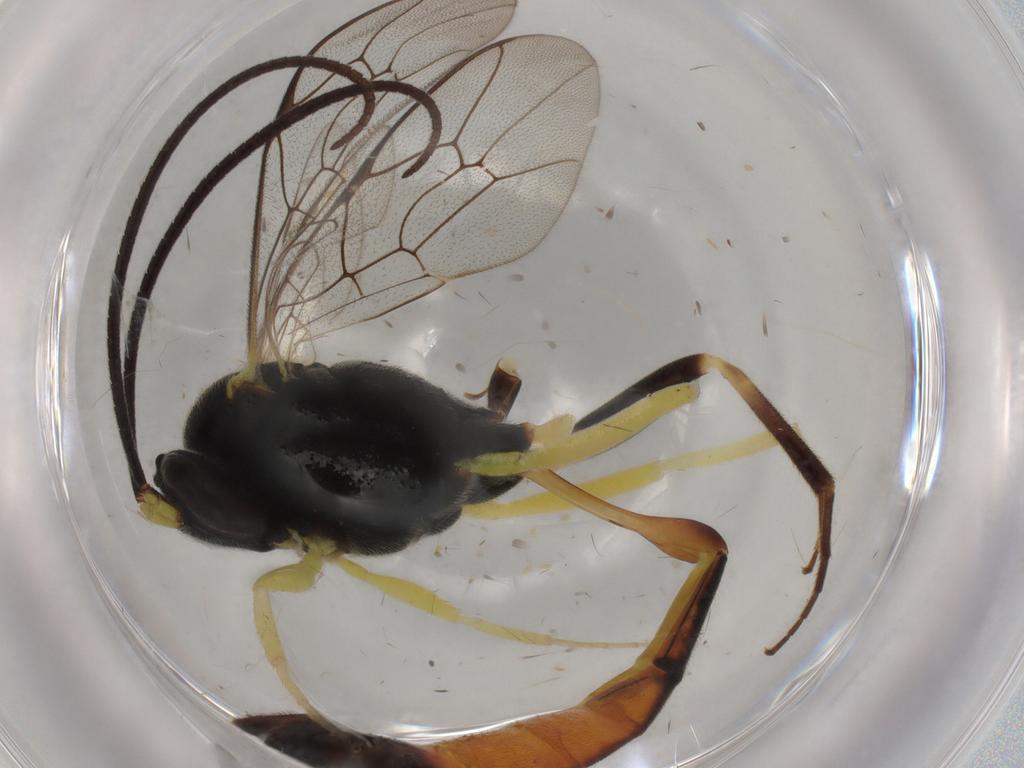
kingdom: Animalia
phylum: Arthropoda
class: Insecta
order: Hymenoptera
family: Ichneumonidae
